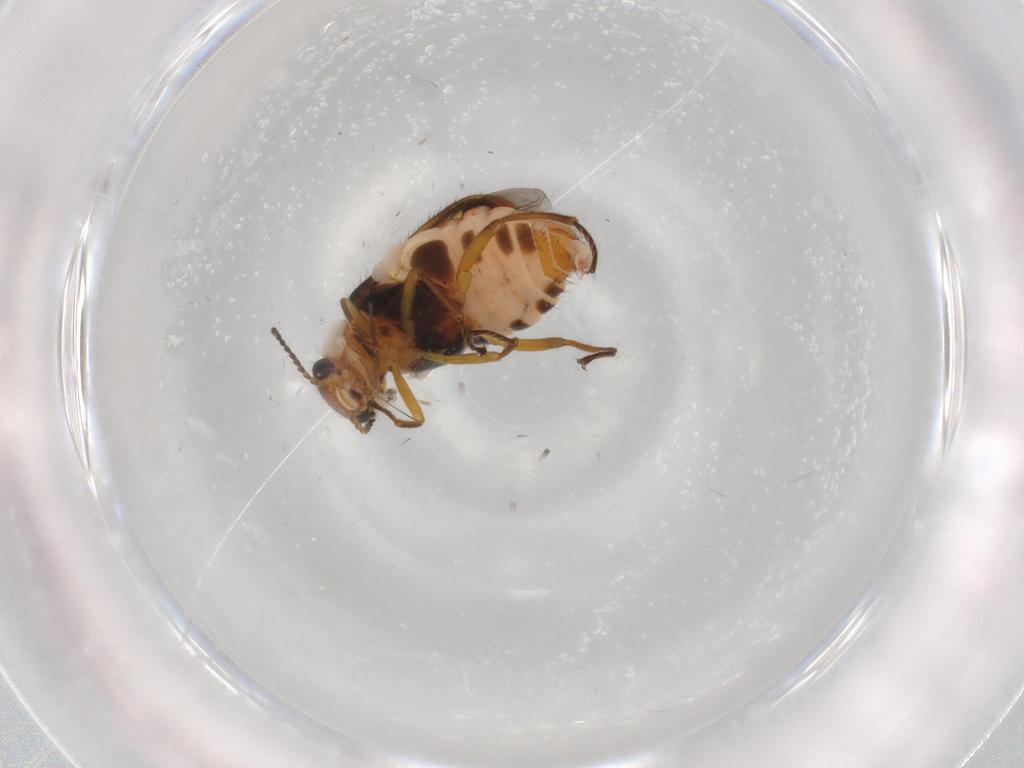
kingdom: Animalia
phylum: Arthropoda
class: Insecta
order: Coleoptera
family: Melyridae
